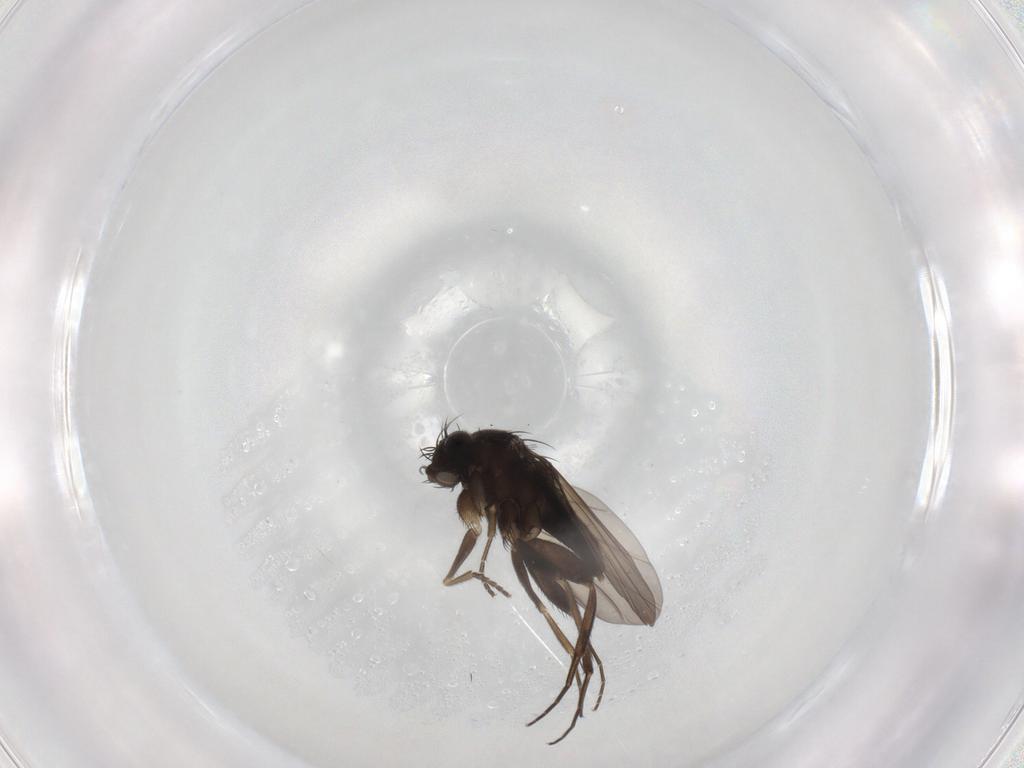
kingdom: Animalia
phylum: Arthropoda
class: Insecta
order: Diptera
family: Phoridae
